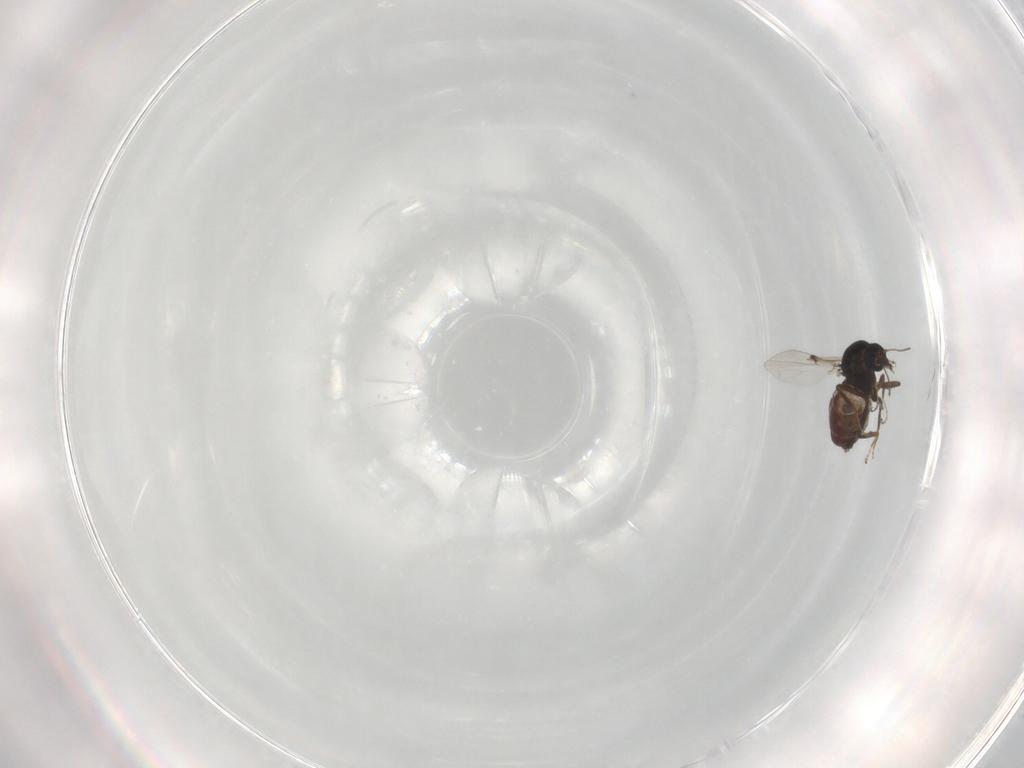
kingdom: Animalia
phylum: Arthropoda
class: Insecta
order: Diptera
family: Ceratopogonidae
